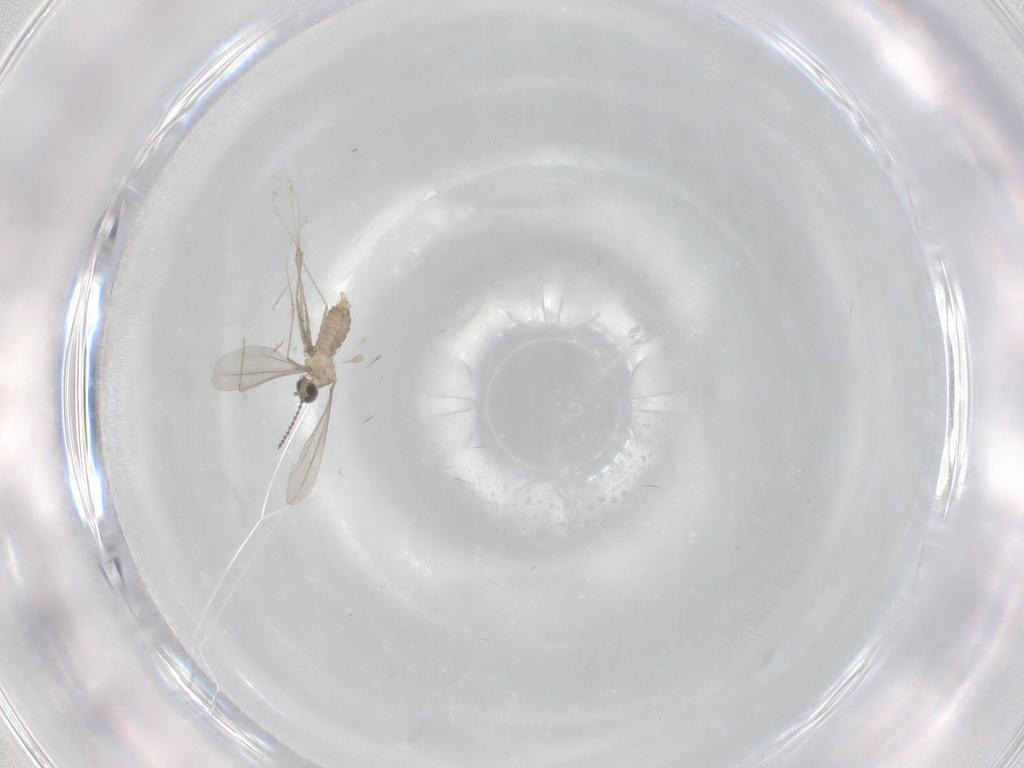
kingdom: Animalia
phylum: Arthropoda
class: Insecta
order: Diptera
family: Cecidomyiidae
